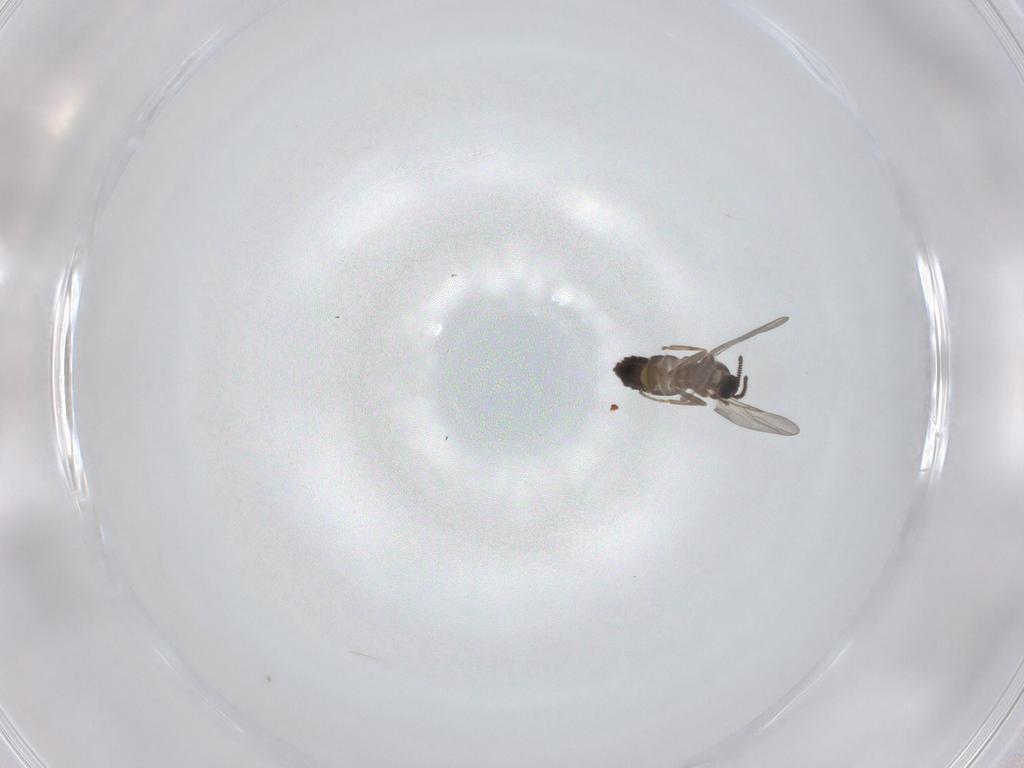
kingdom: Animalia
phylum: Arthropoda
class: Insecta
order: Diptera
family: Scatopsidae
